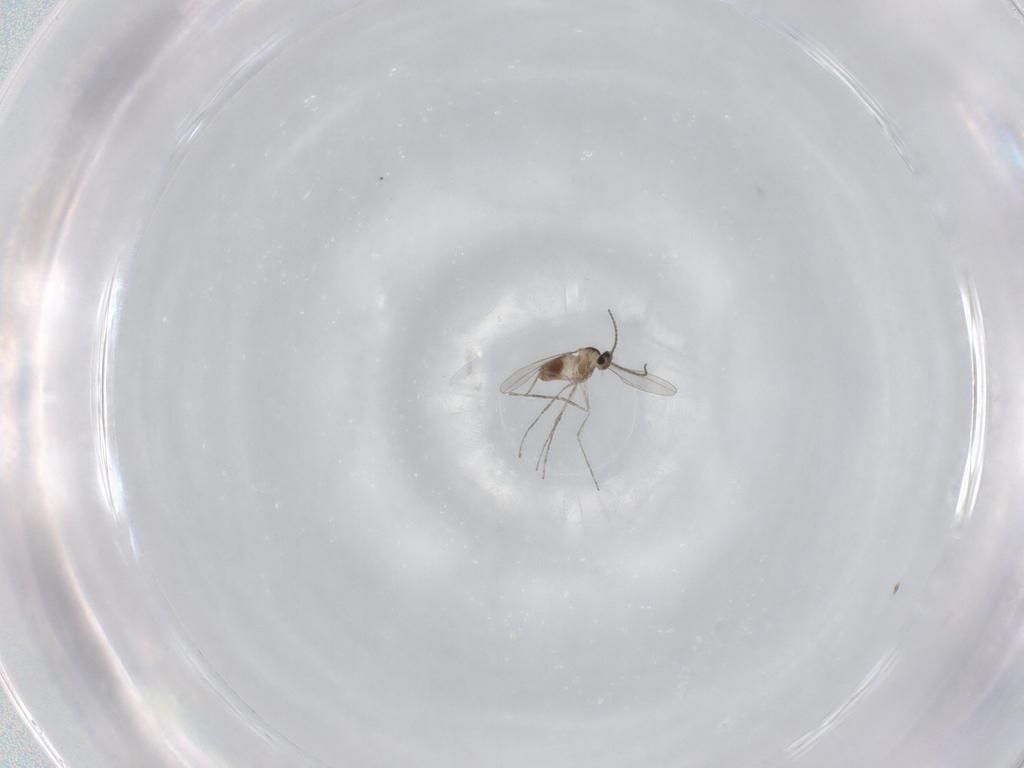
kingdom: Animalia
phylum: Arthropoda
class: Insecta
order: Diptera
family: Cecidomyiidae
